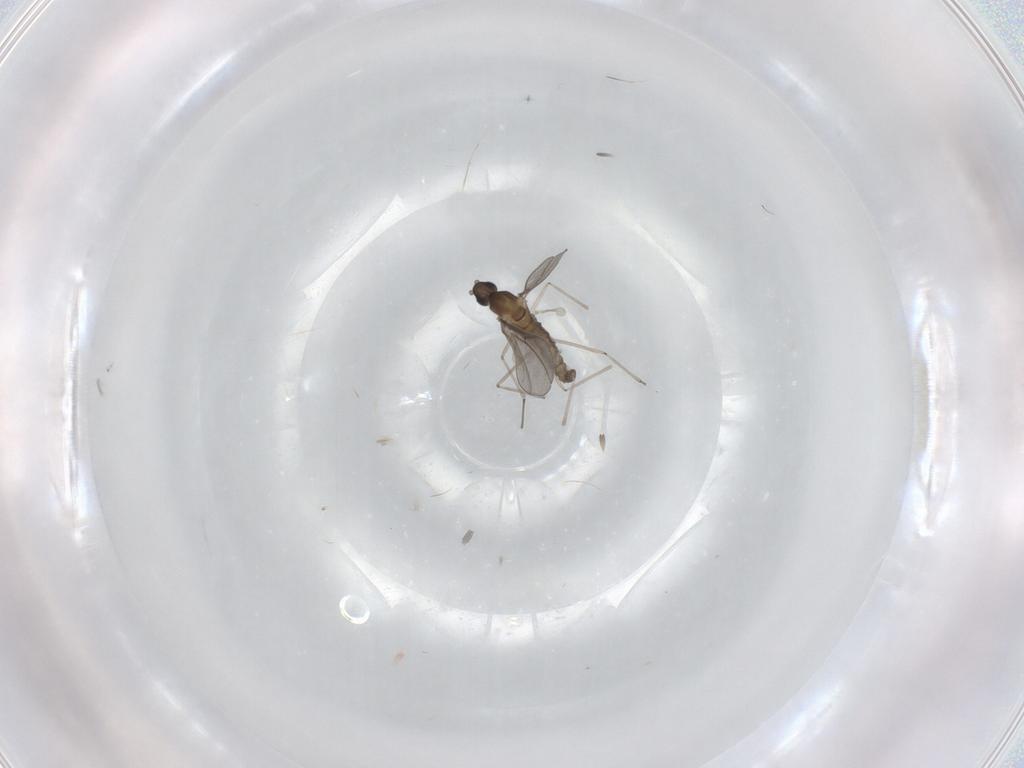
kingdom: Animalia
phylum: Arthropoda
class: Insecta
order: Diptera
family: Cecidomyiidae
